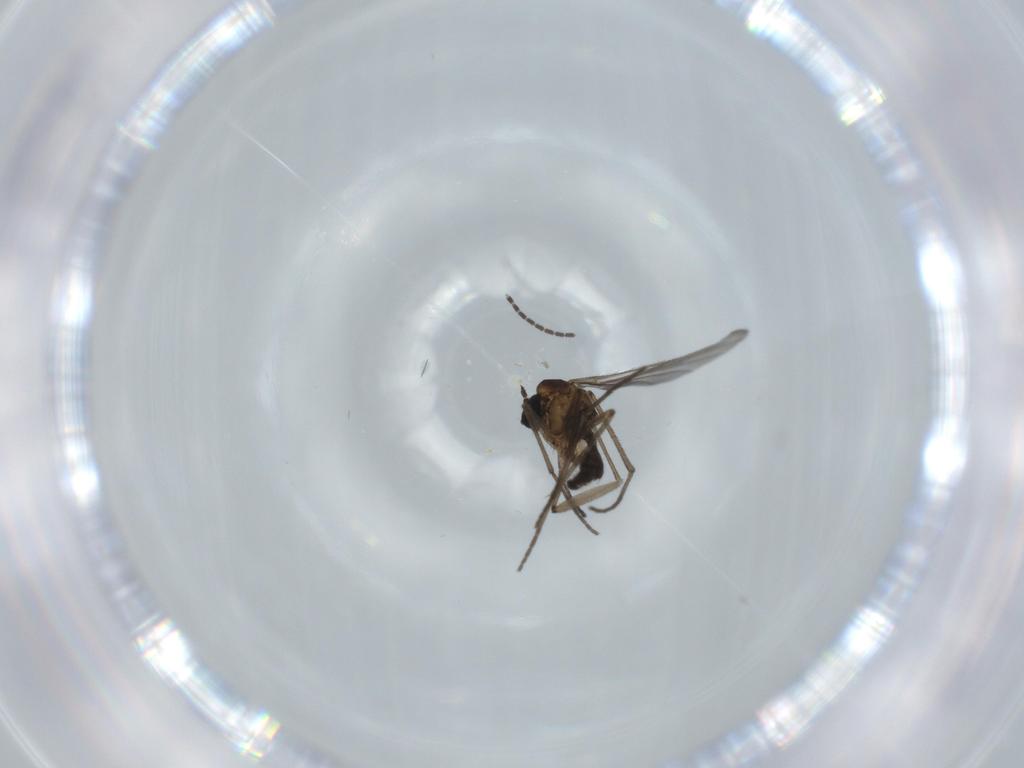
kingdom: Animalia
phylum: Arthropoda
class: Insecta
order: Diptera
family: Sciaridae
